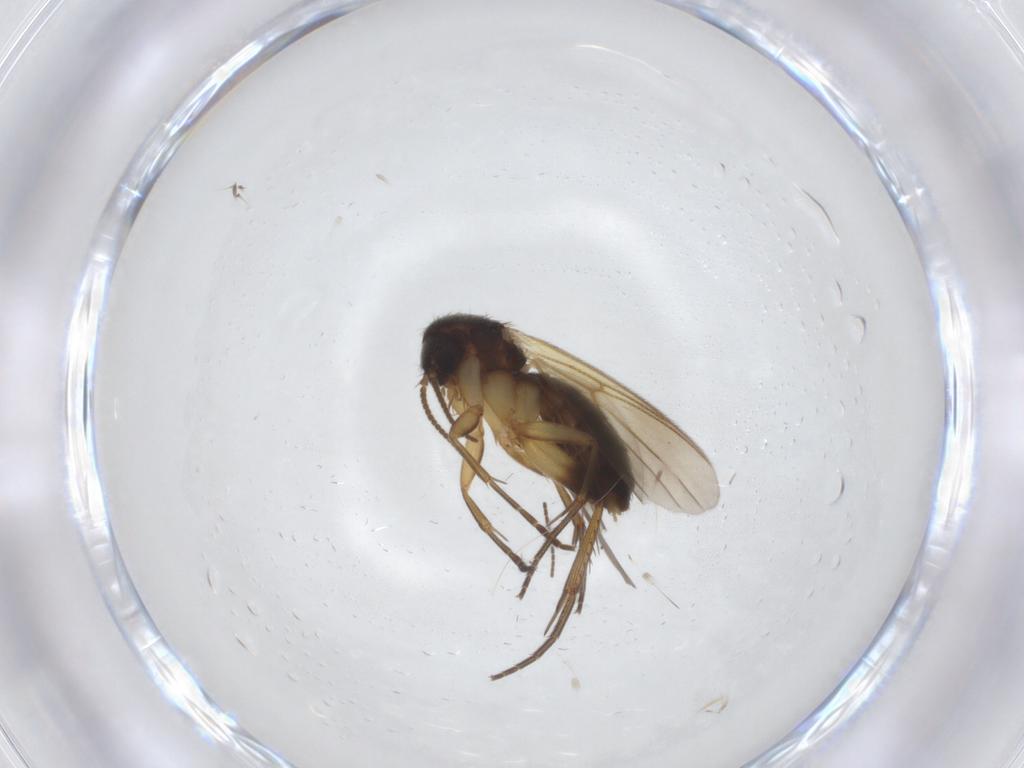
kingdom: Animalia
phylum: Arthropoda
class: Insecta
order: Diptera
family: Mycetophilidae
